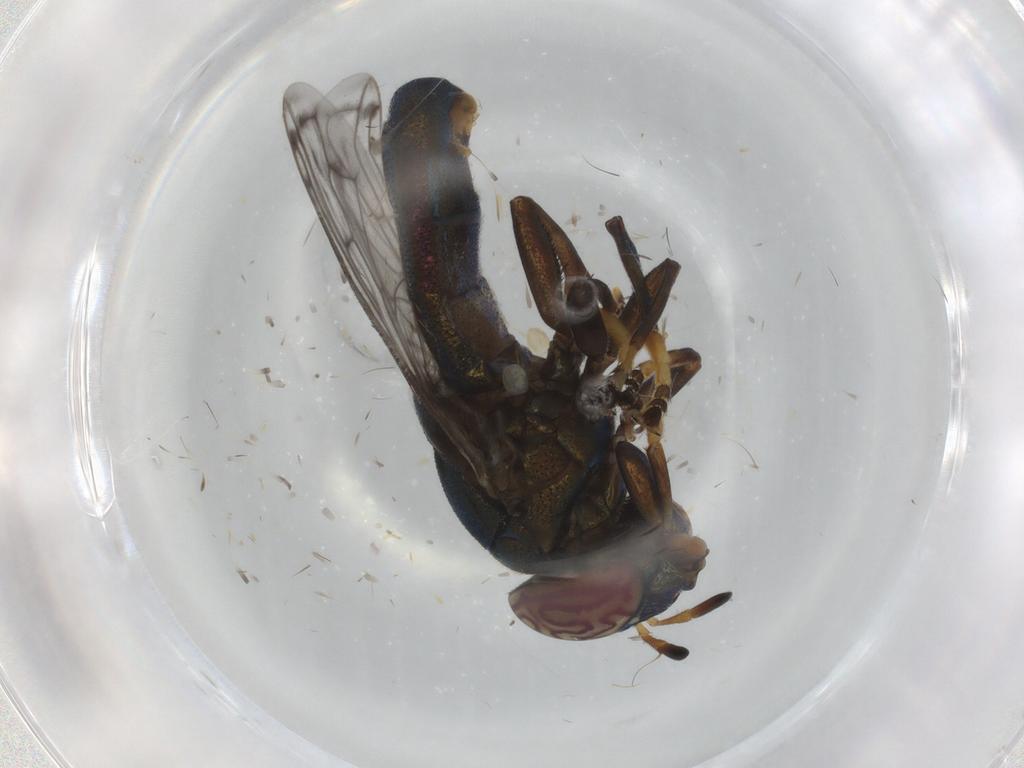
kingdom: Animalia
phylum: Arthropoda
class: Insecta
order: Diptera
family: Syrphidae
